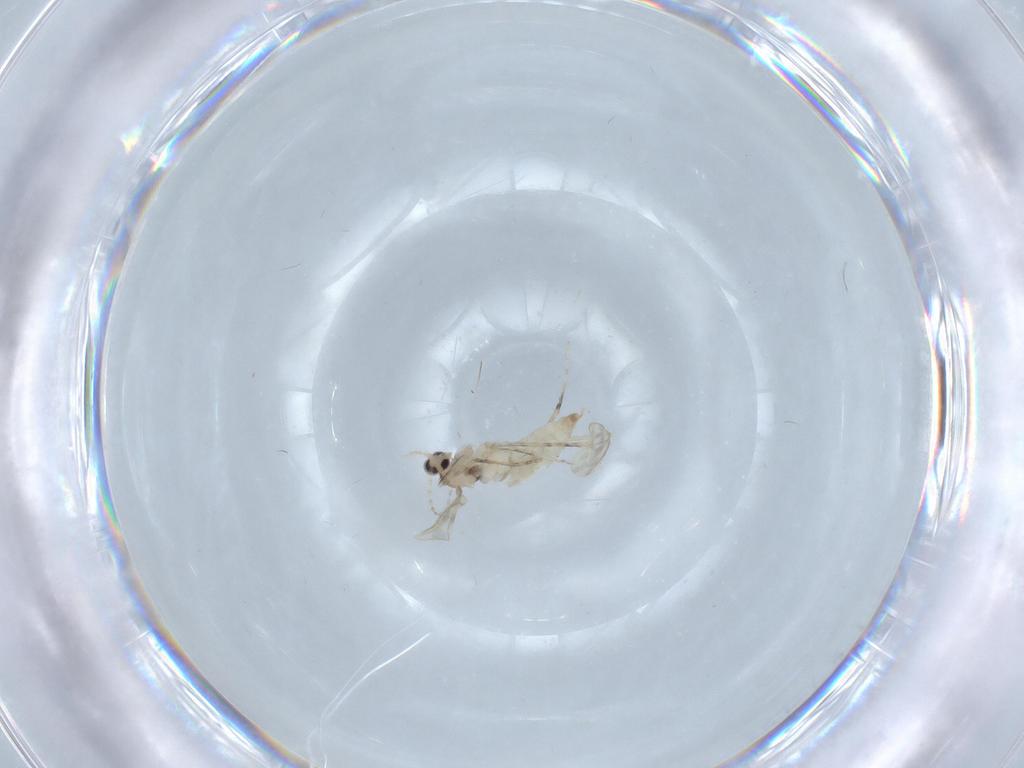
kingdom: Animalia
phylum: Arthropoda
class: Insecta
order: Diptera
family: Cecidomyiidae
